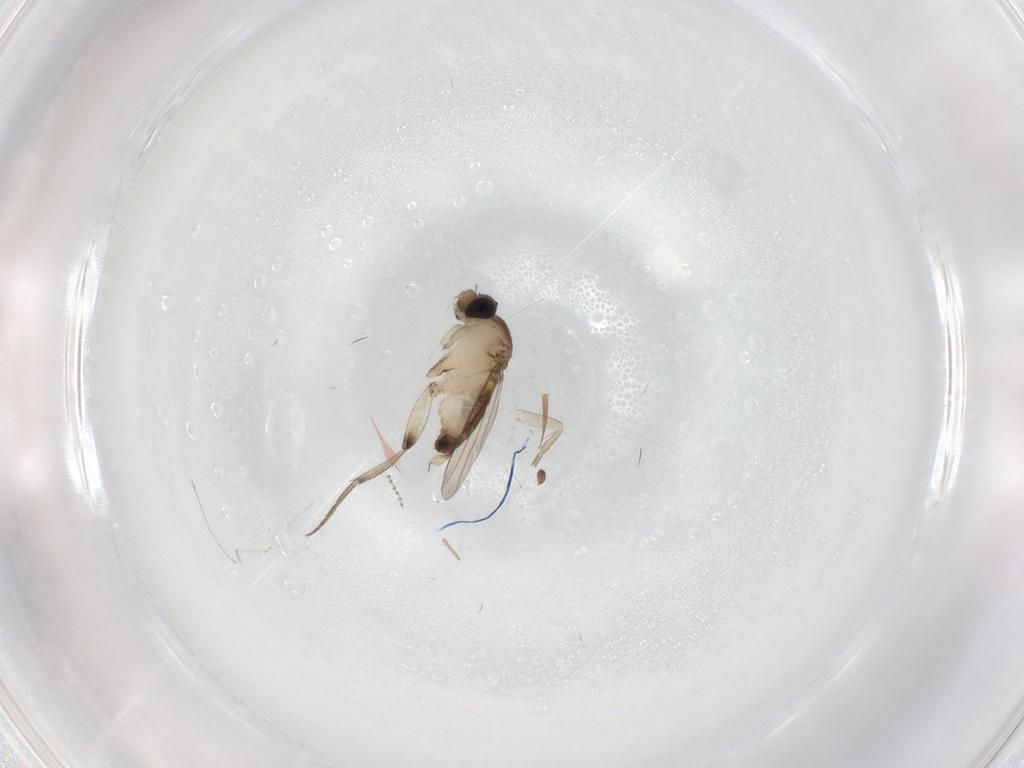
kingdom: Animalia
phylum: Arthropoda
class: Insecta
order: Diptera
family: Phoridae
